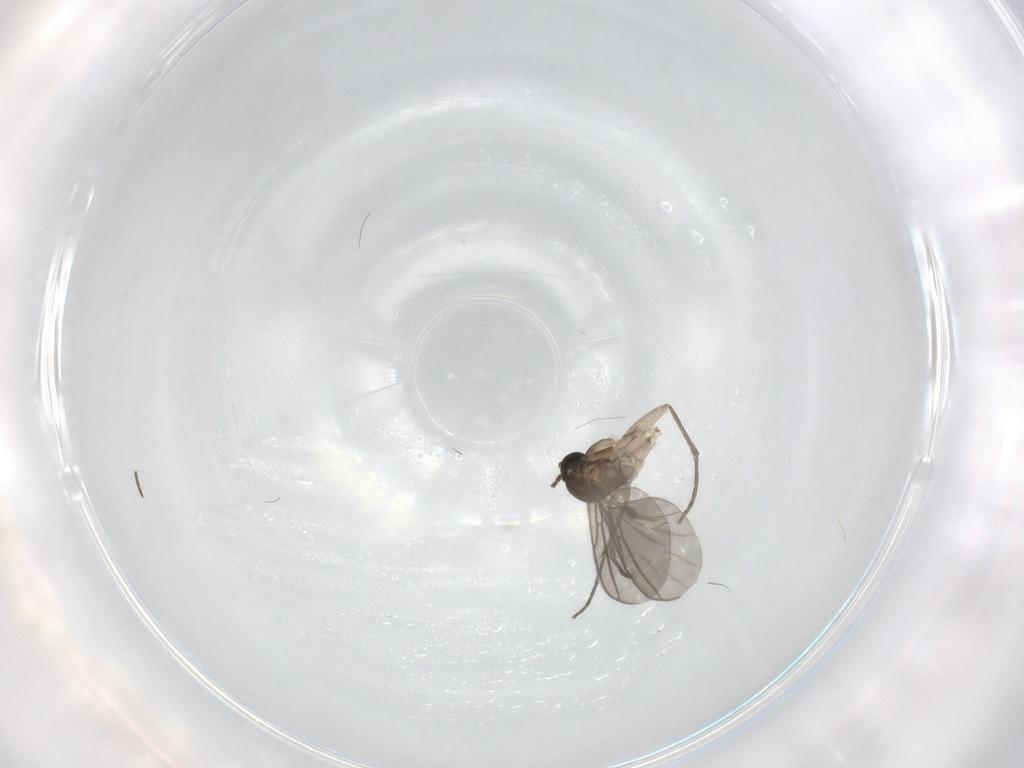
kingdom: Animalia
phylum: Arthropoda
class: Insecta
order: Diptera
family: Sciaridae
